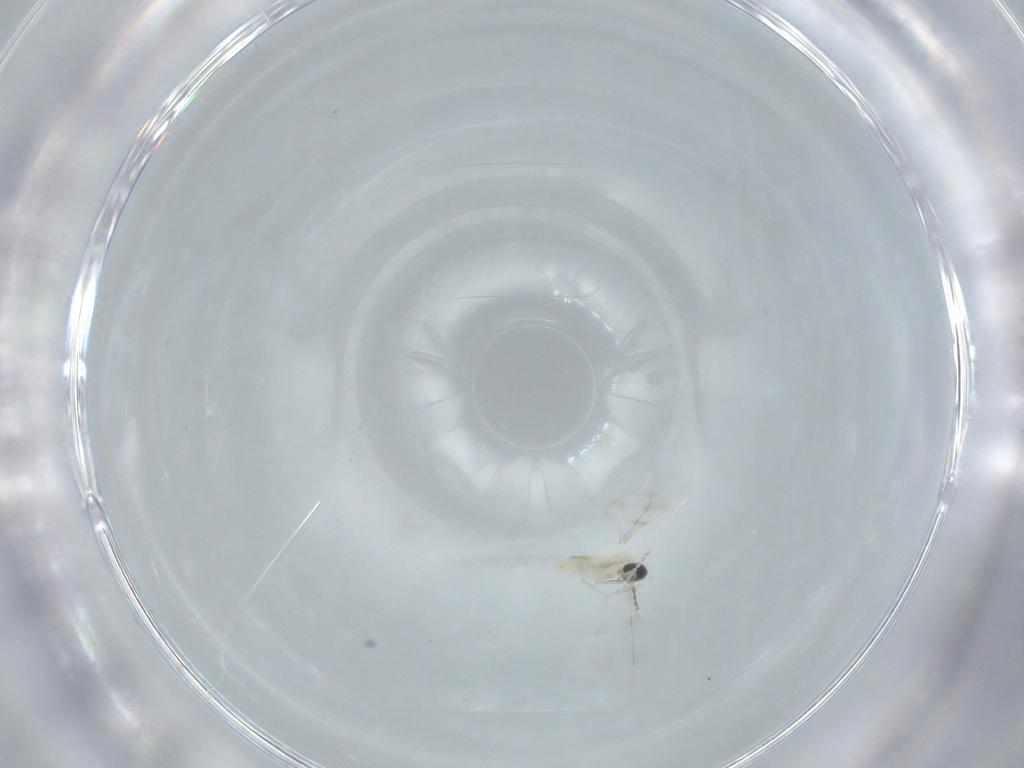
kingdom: Animalia
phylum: Arthropoda
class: Insecta
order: Diptera
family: Cecidomyiidae
